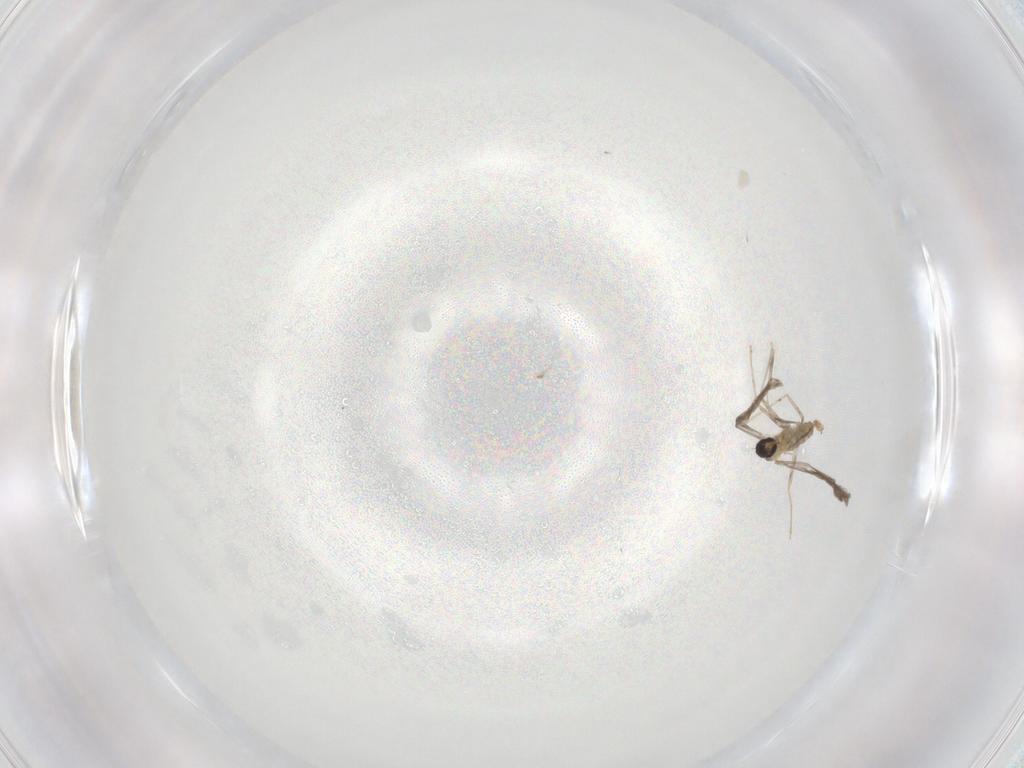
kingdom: Animalia
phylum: Arthropoda
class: Insecta
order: Diptera
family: Cecidomyiidae
